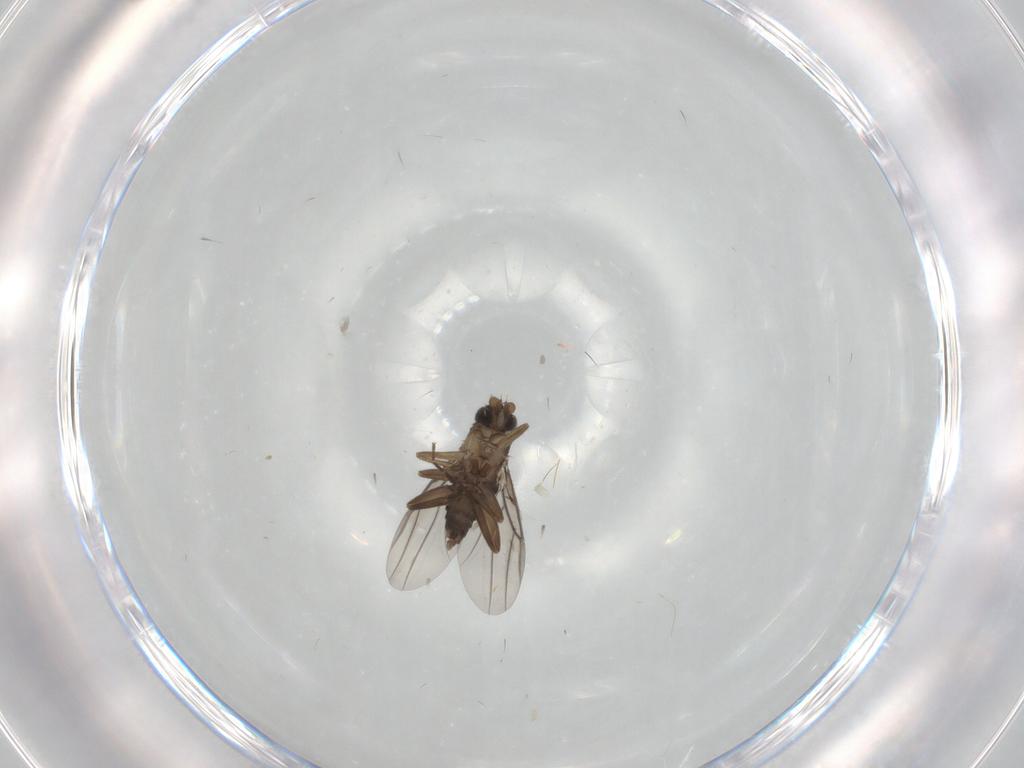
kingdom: Animalia
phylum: Arthropoda
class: Insecta
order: Diptera
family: Phoridae
